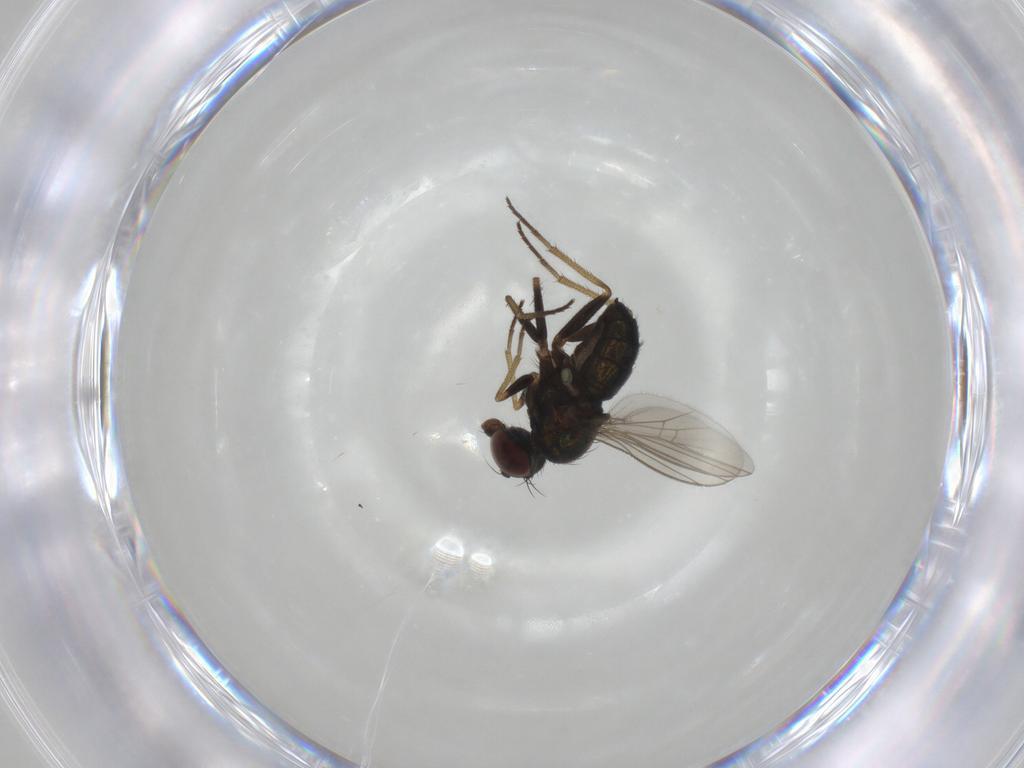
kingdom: Animalia
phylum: Arthropoda
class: Insecta
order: Diptera
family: Dolichopodidae
